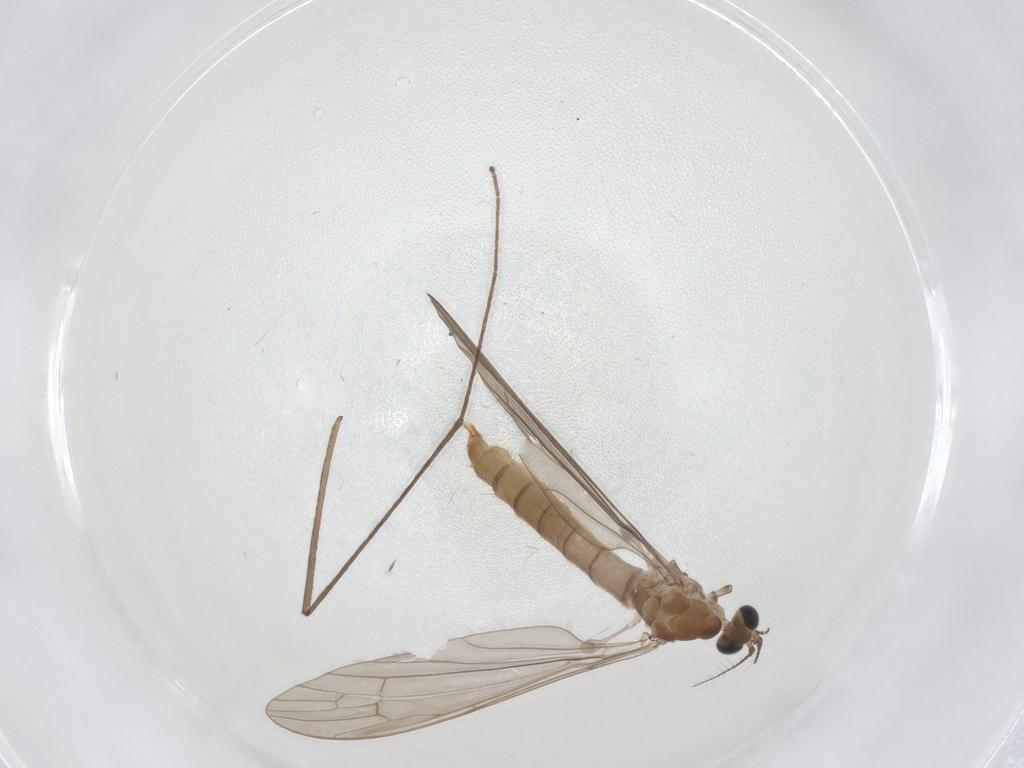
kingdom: Animalia
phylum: Arthropoda
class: Insecta
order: Diptera
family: Limoniidae
